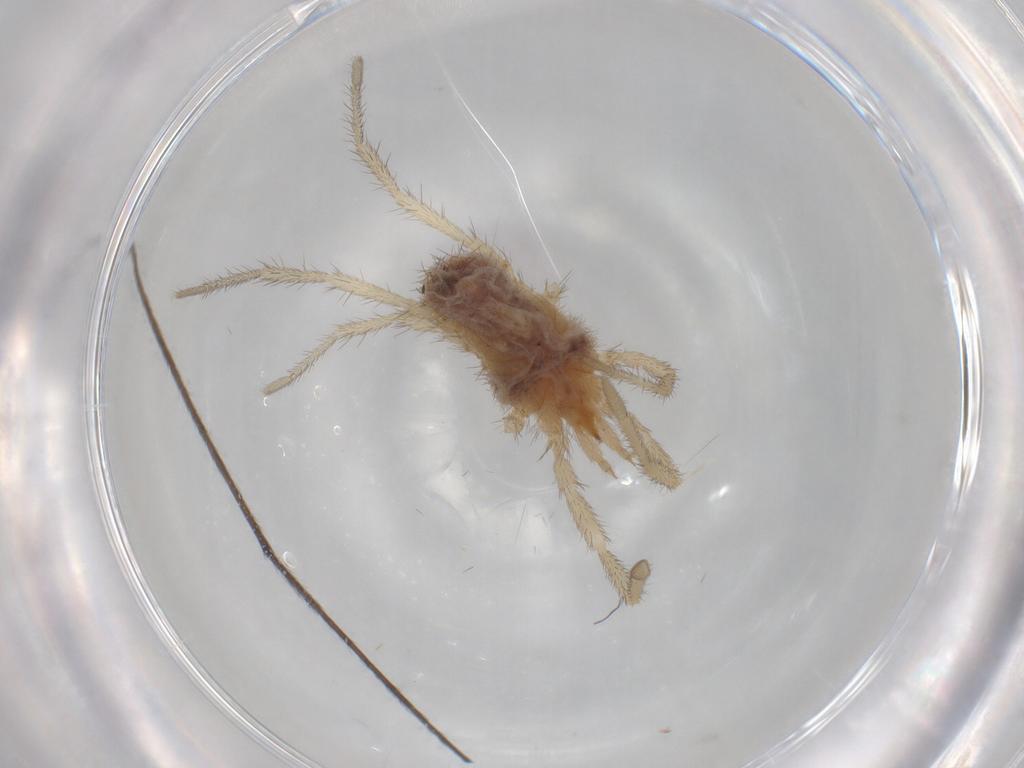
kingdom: Animalia
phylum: Arthropoda
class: Arachnida
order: Trombidiformes
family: Erythraeidae
